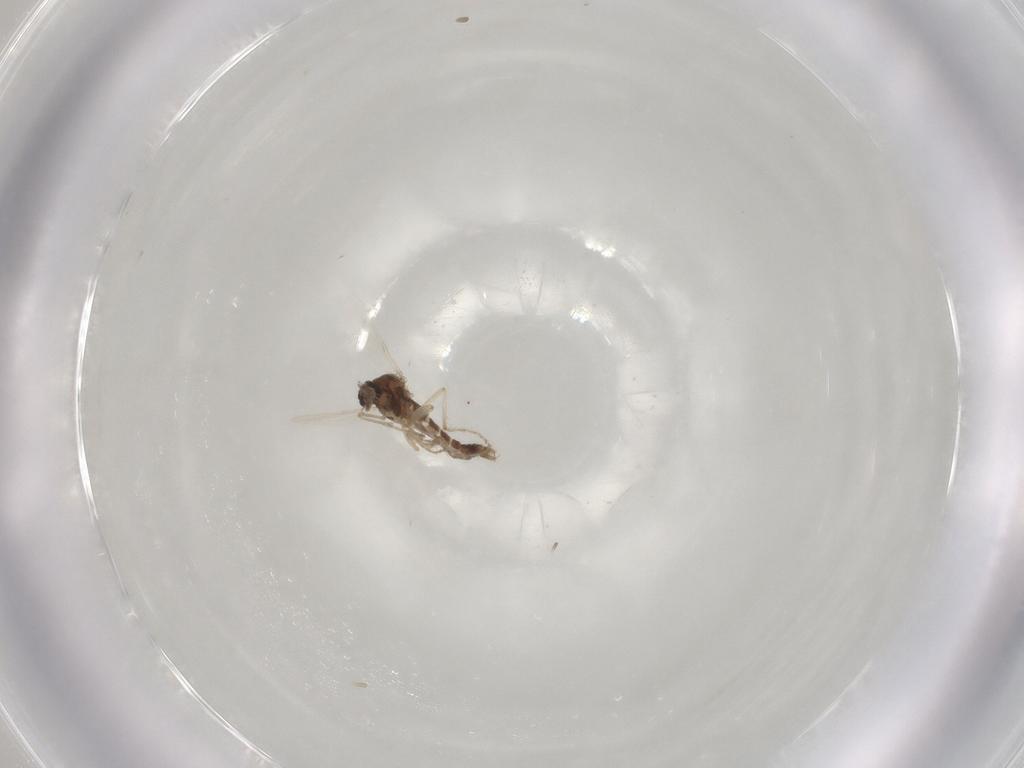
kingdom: Animalia
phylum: Arthropoda
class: Insecta
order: Diptera
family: Ceratopogonidae
